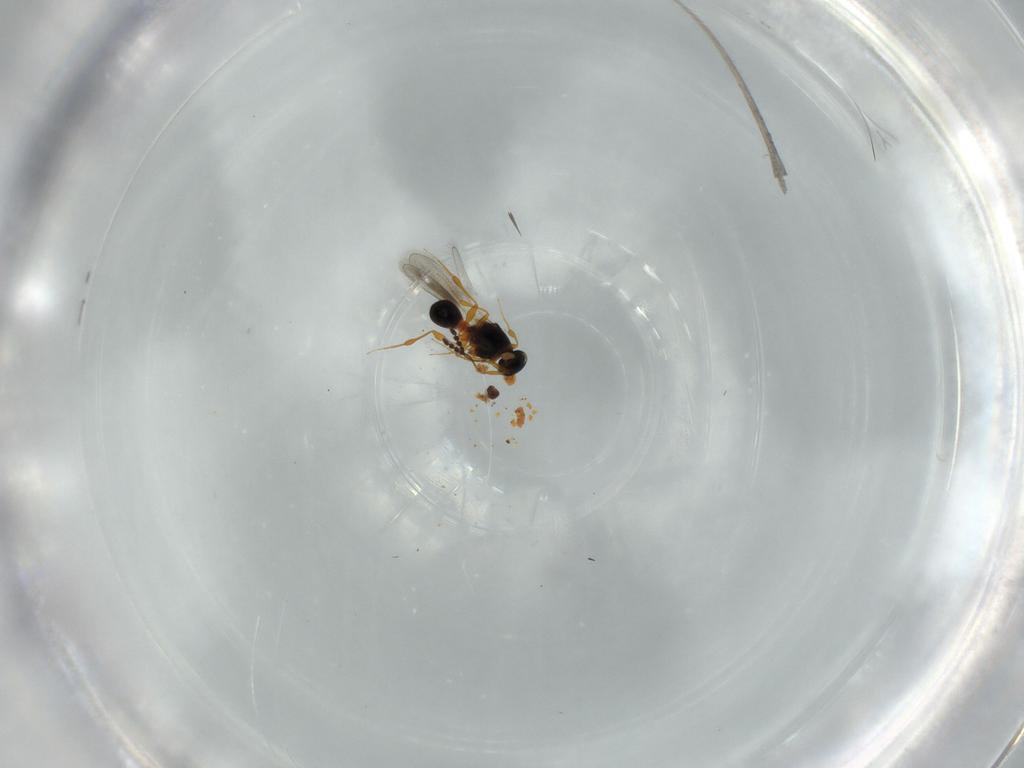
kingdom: Animalia
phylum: Arthropoda
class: Insecta
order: Hymenoptera
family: Platygastridae
